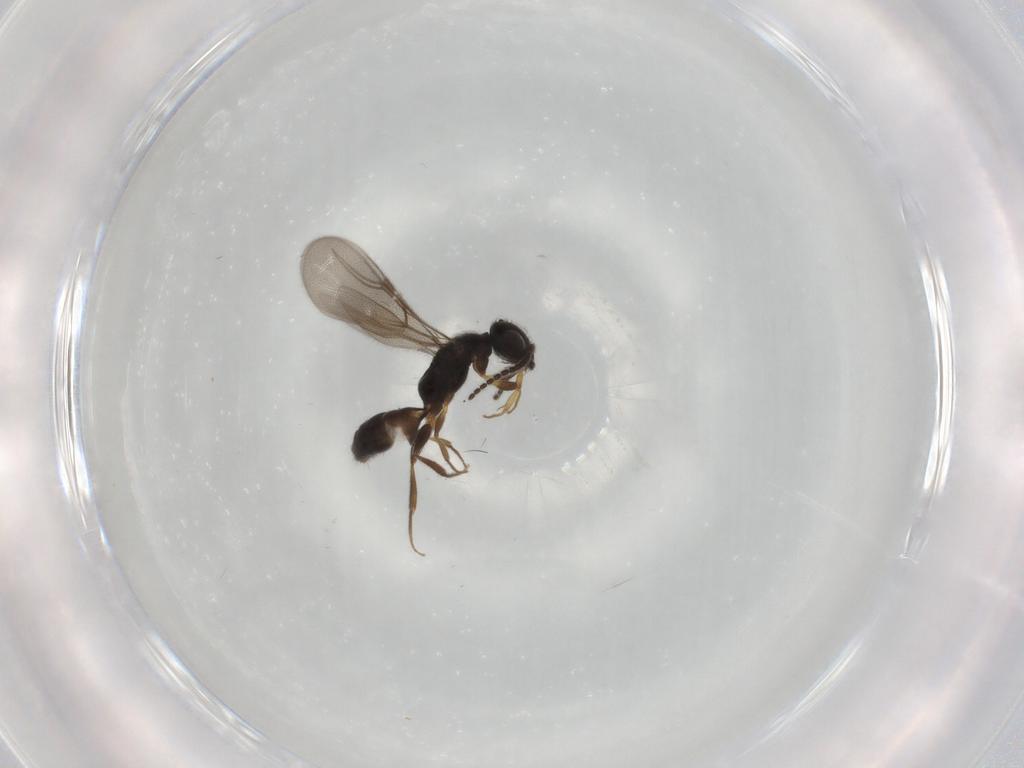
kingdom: Animalia
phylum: Arthropoda
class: Insecta
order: Hymenoptera
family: Bethylidae
